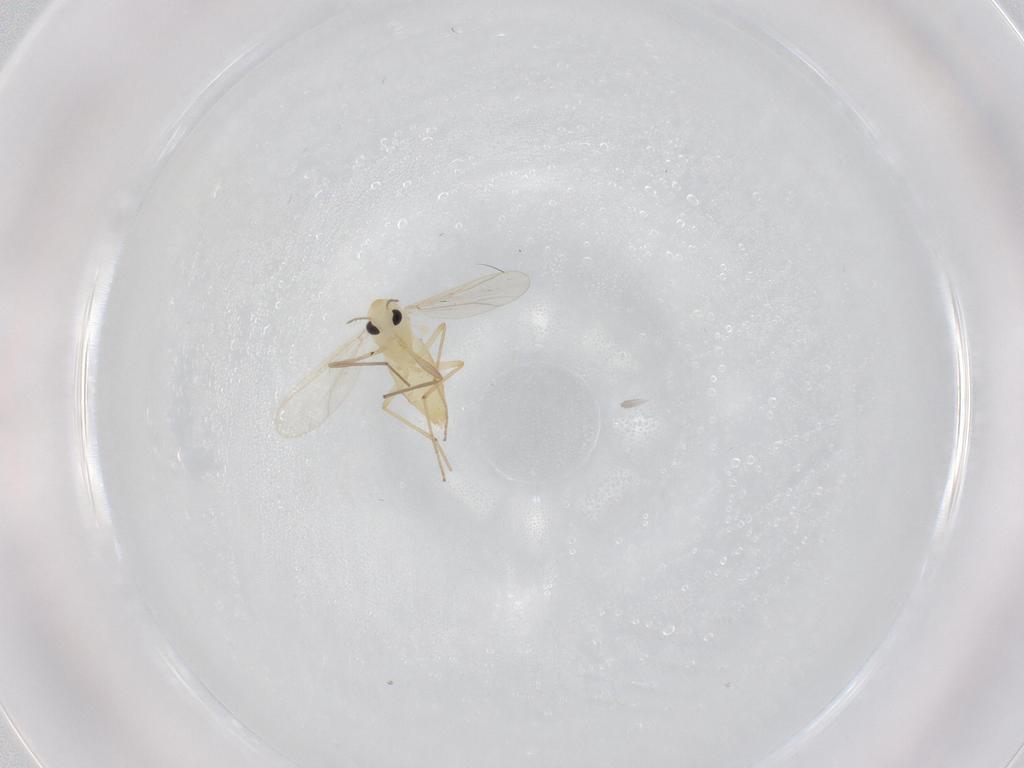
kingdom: Animalia
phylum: Arthropoda
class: Insecta
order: Diptera
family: Chironomidae
